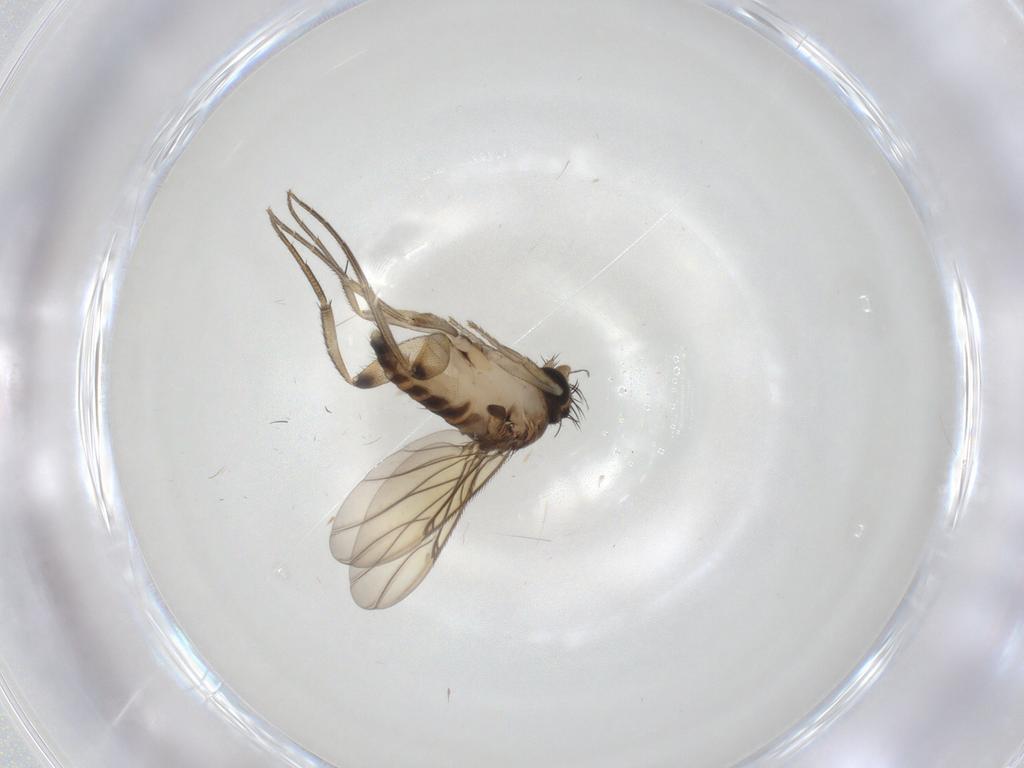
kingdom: Animalia
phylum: Arthropoda
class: Insecta
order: Diptera
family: Phoridae
